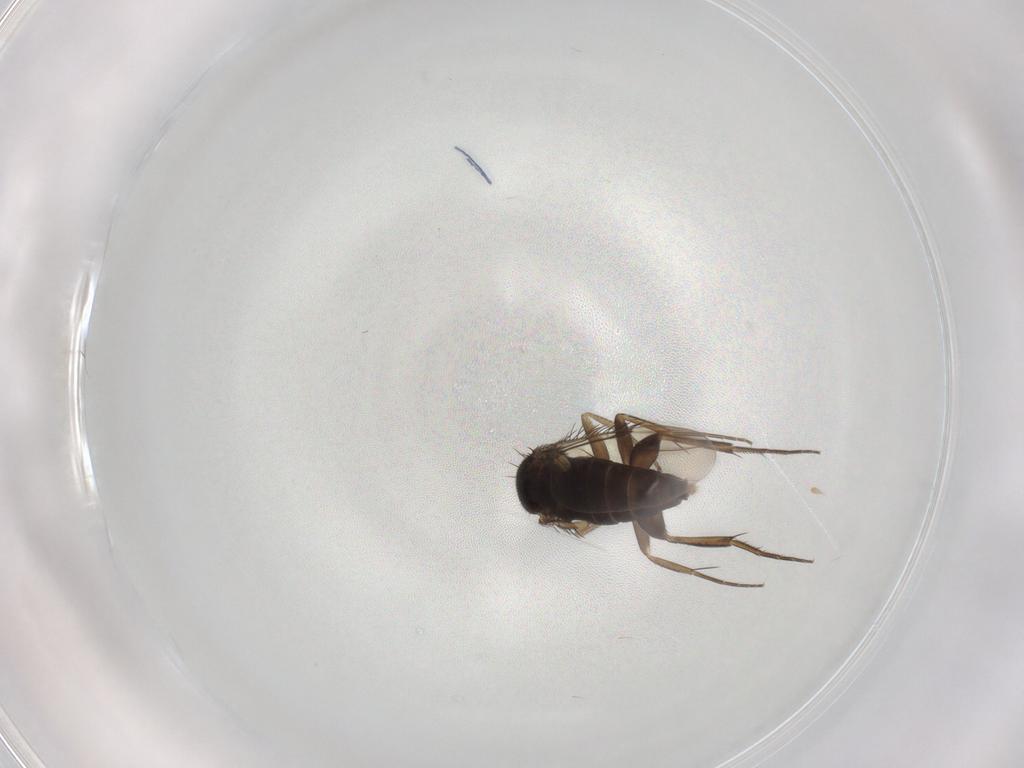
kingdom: Animalia
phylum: Arthropoda
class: Insecta
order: Diptera
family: Phoridae
